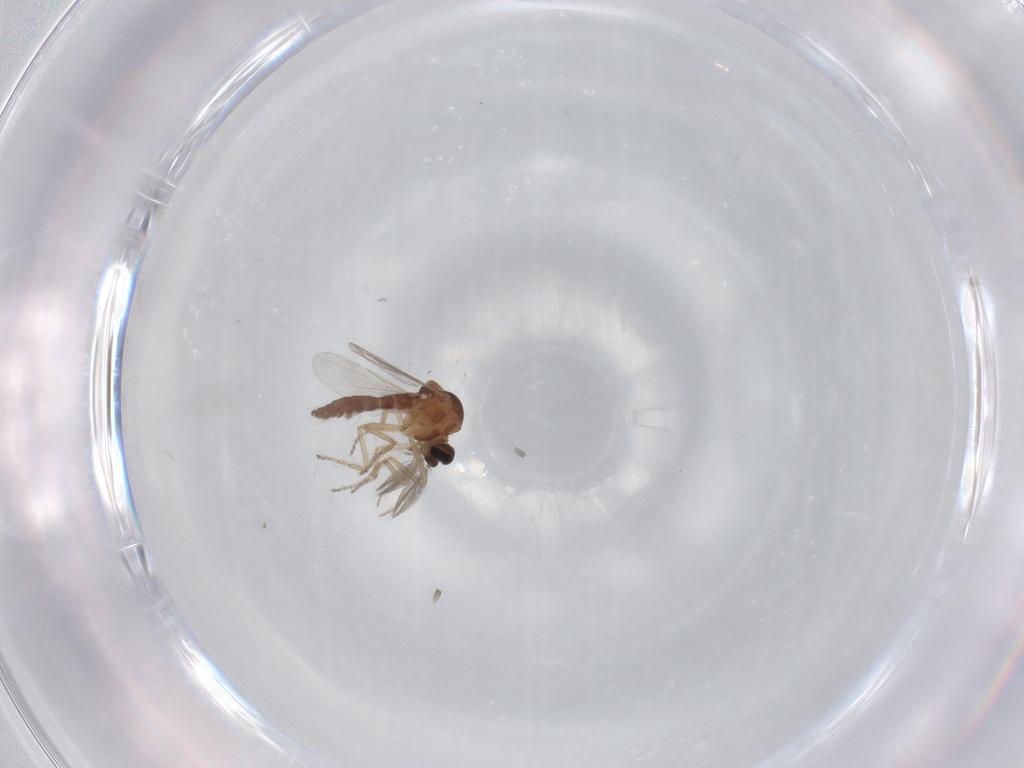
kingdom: Animalia
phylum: Arthropoda
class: Insecta
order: Diptera
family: Ceratopogonidae
